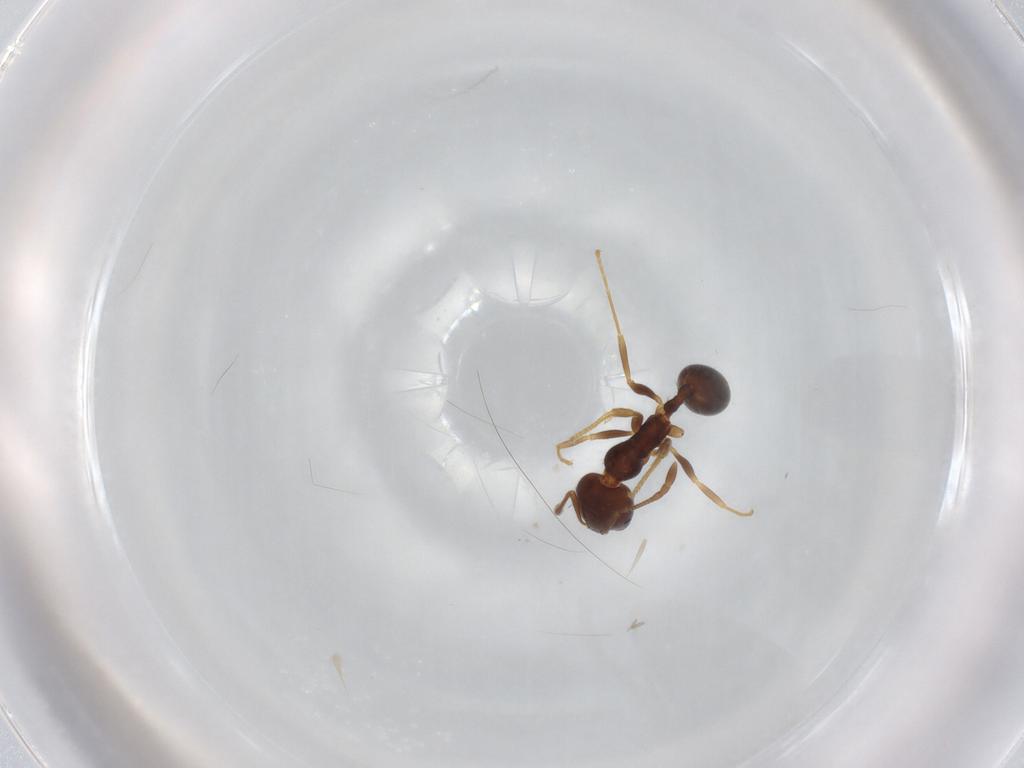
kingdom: Animalia
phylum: Arthropoda
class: Insecta
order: Hymenoptera
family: Formicidae
